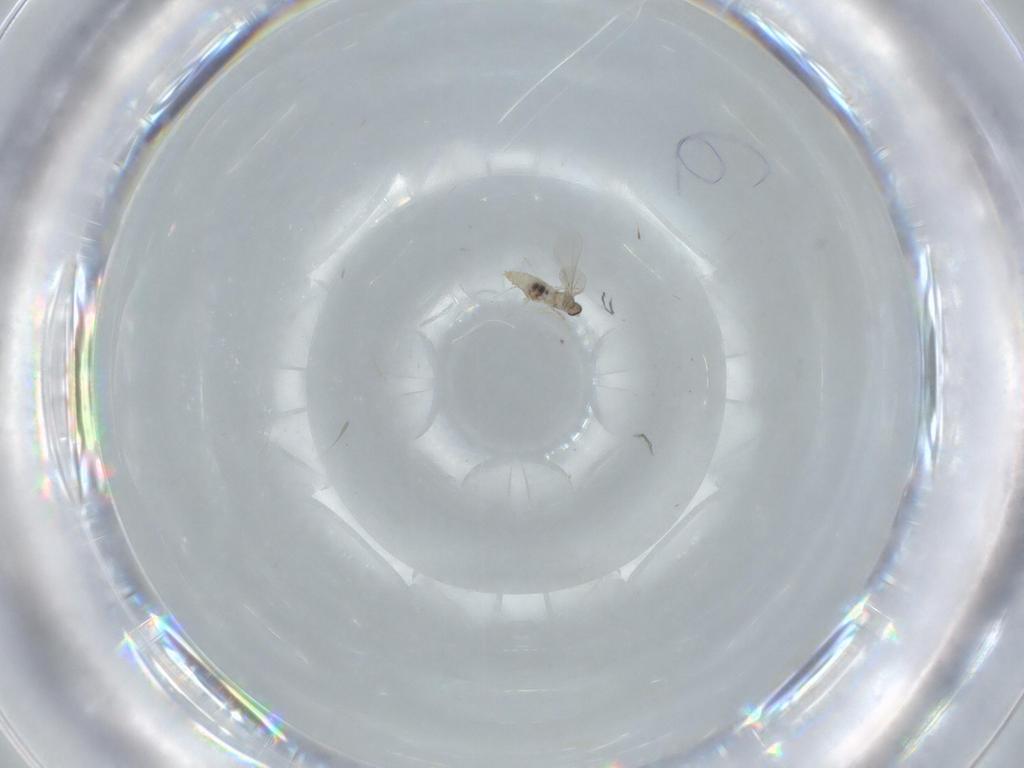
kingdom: Animalia
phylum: Arthropoda
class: Insecta
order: Diptera
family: Cecidomyiidae
